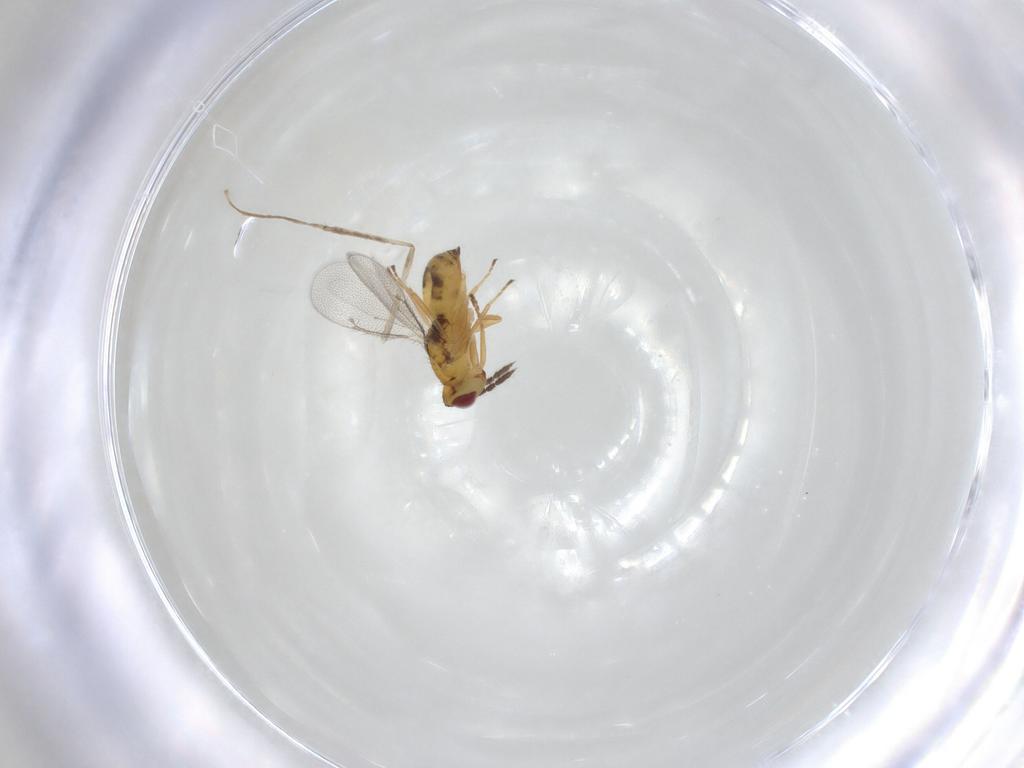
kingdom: Animalia
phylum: Arthropoda
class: Insecta
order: Hymenoptera
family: Eulophidae
